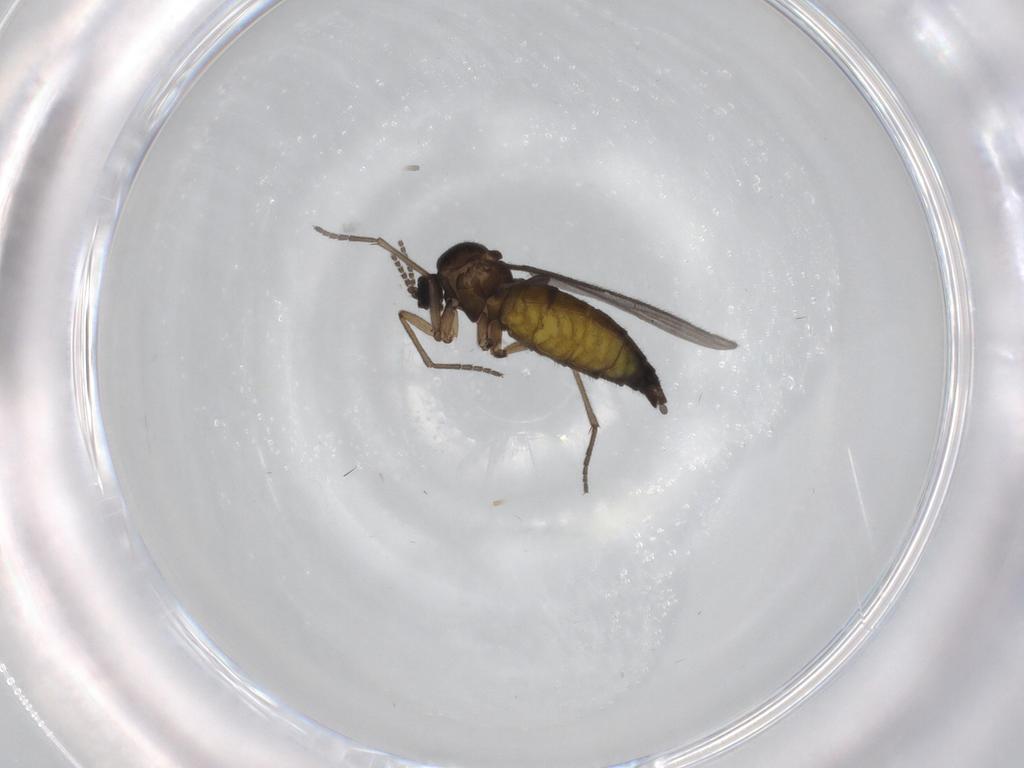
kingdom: Animalia
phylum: Arthropoda
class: Insecta
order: Diptera
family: Sciaridae
